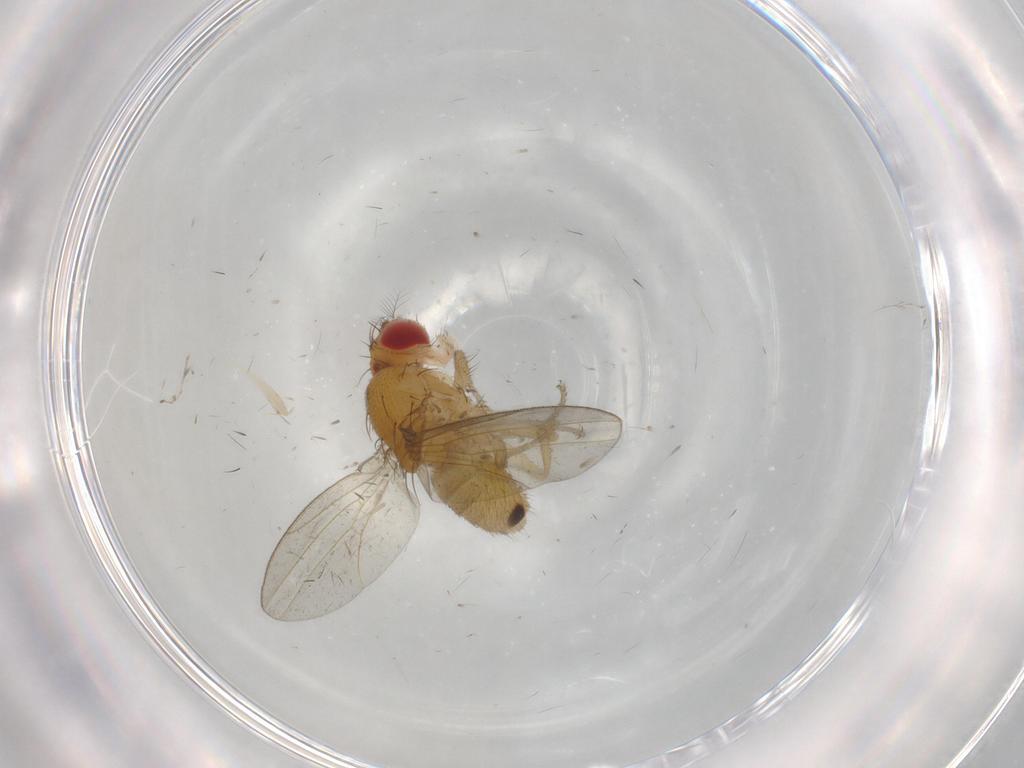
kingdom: Animalia
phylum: Arthropoda
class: Insecta
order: Diptera
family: Drosophilidae
